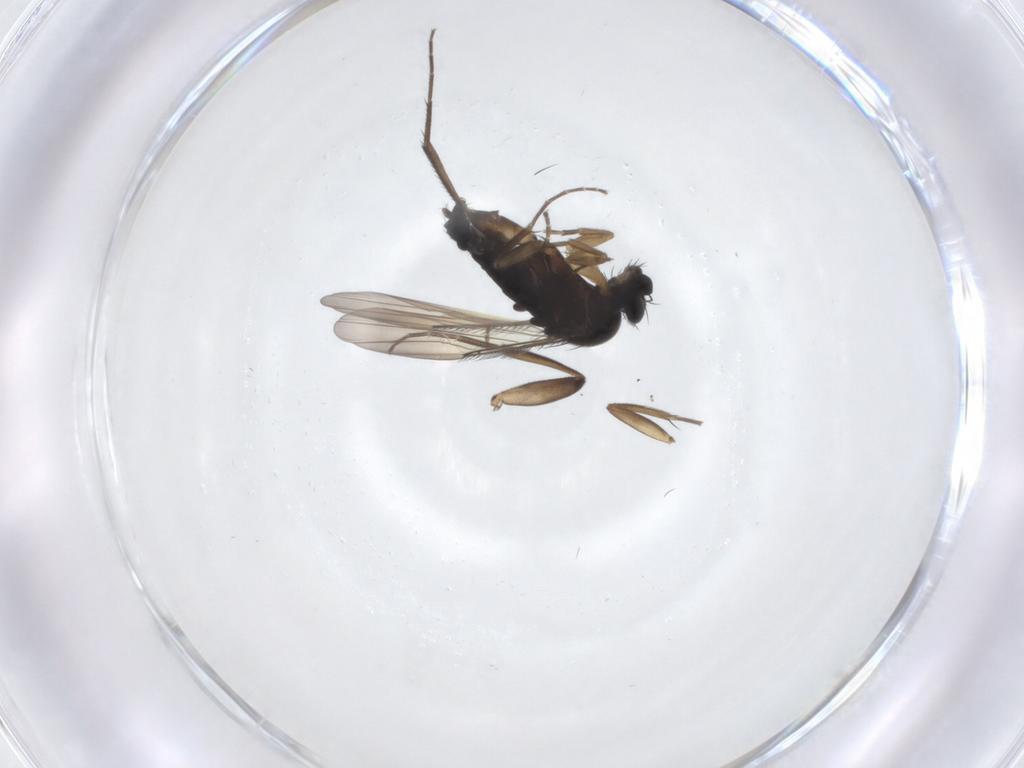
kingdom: Animalia
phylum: Arthropoda
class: Insecta
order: Diptera
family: Phoridae
